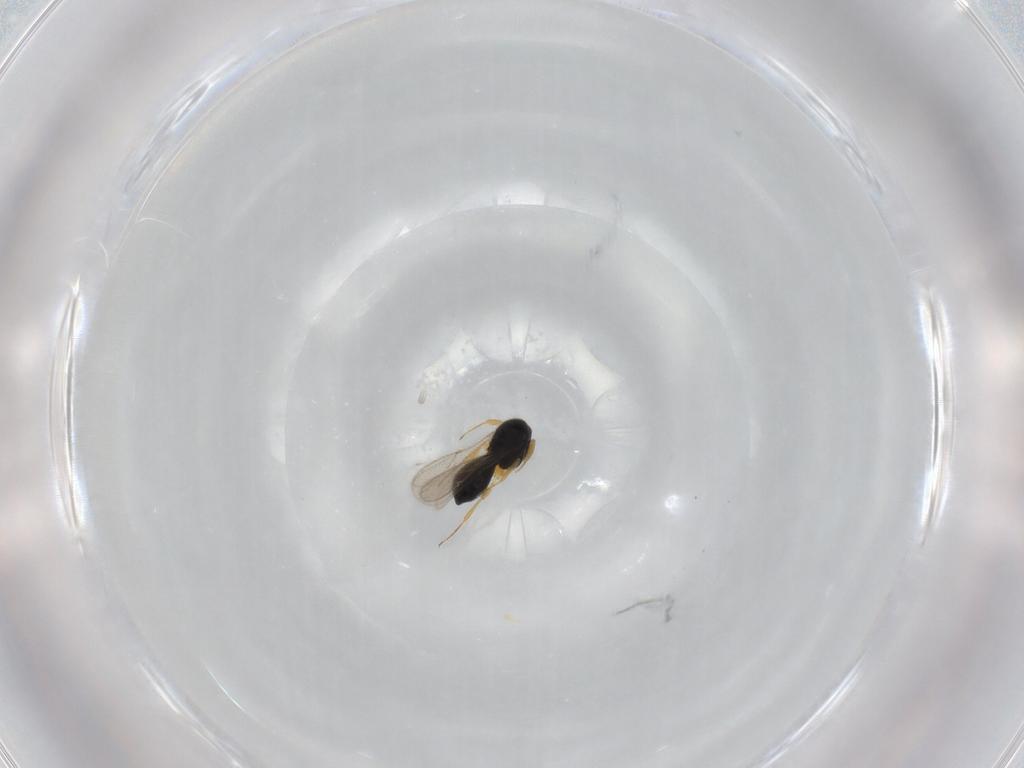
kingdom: Animalia
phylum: Arthropoda
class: Insecta
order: Hymenoptera
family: Scelionidae
